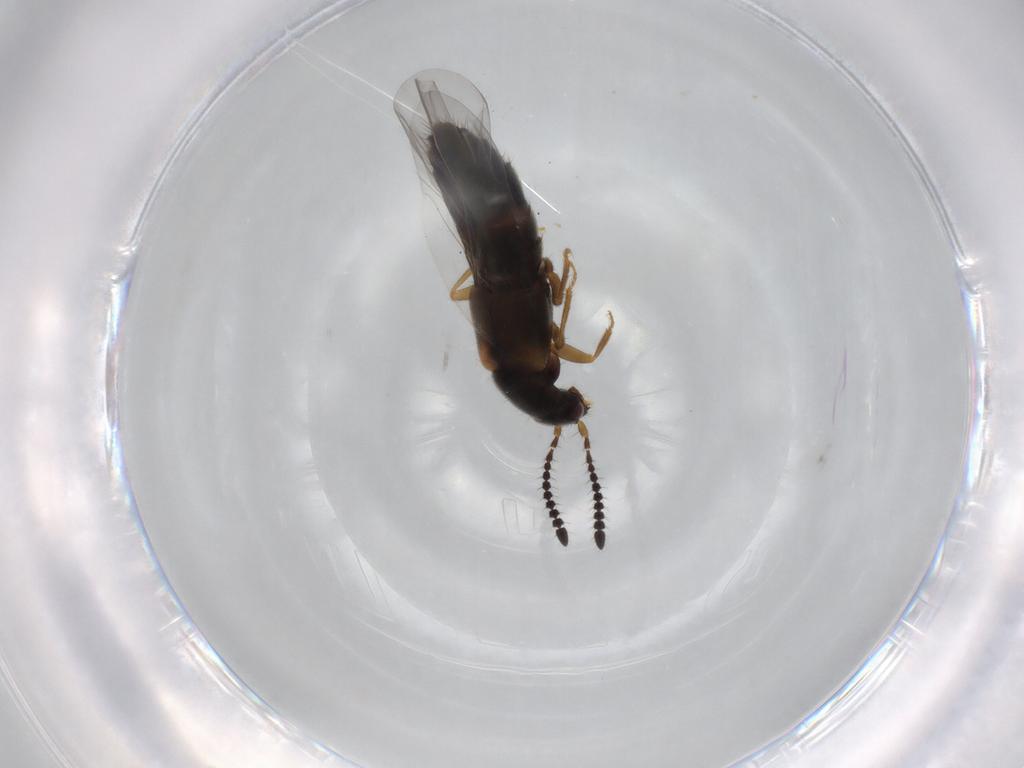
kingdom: Animalia
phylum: Arthropoda
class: Insecta
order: Coleoptera
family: Staphylinidae
